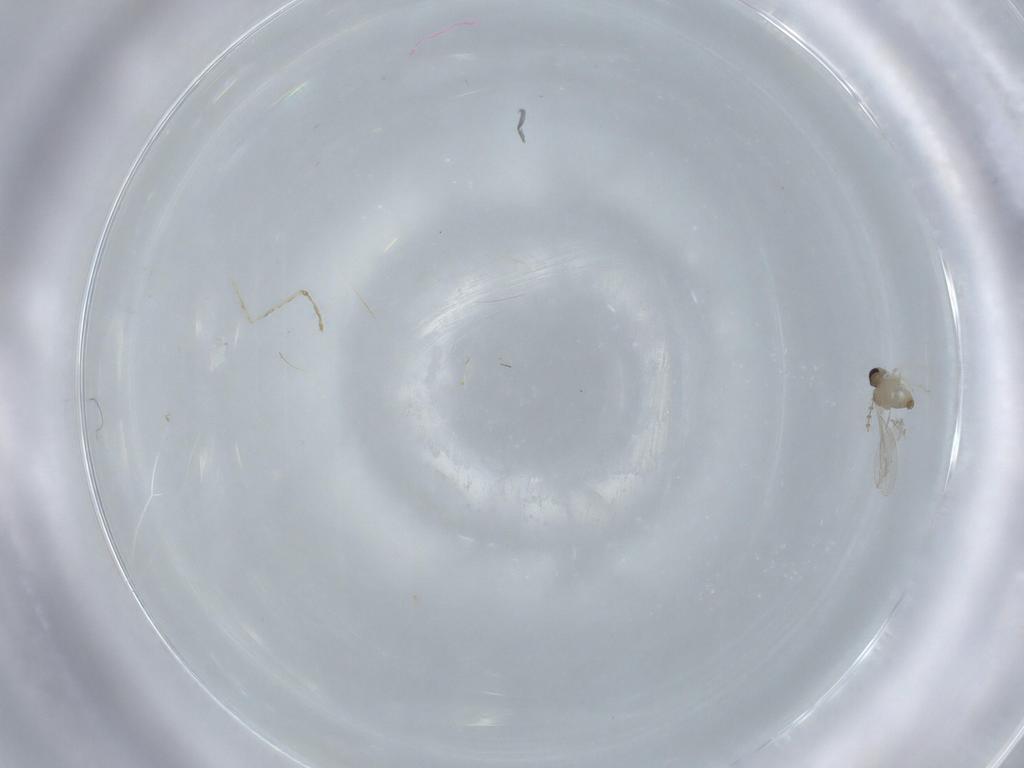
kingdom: Animalia
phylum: Arthropoda
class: Insecta
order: Diptera
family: Cecidomyiidae
